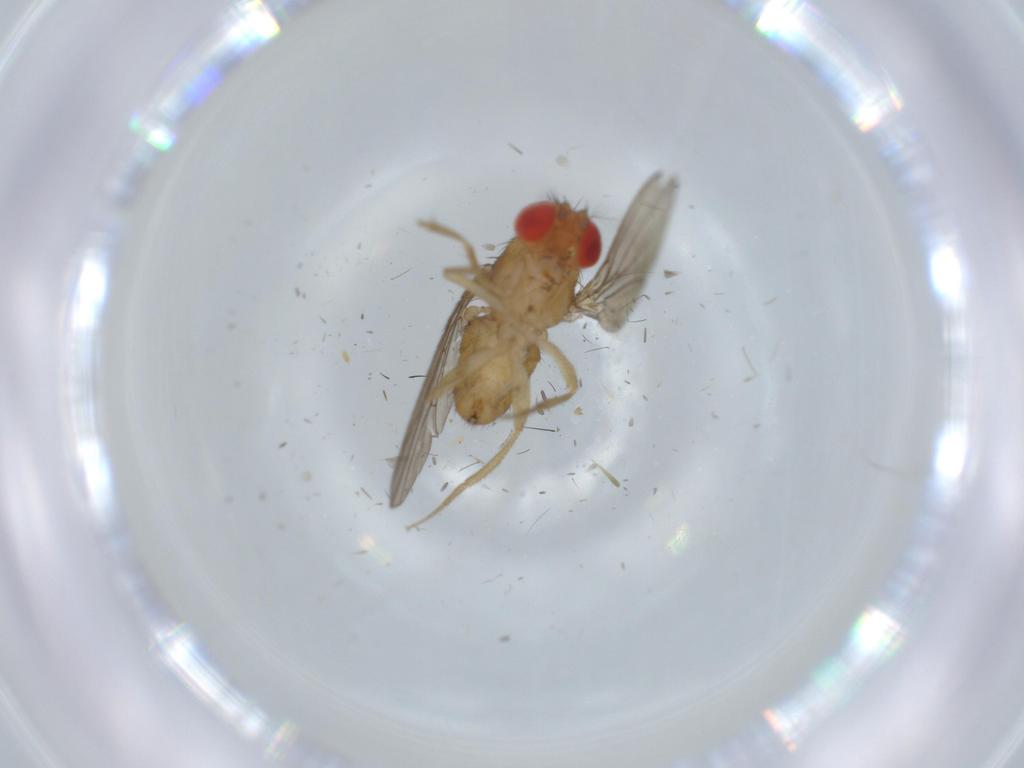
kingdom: Animalia
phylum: Arthropoda
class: Insecta
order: Diptera
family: Drosophilidae
